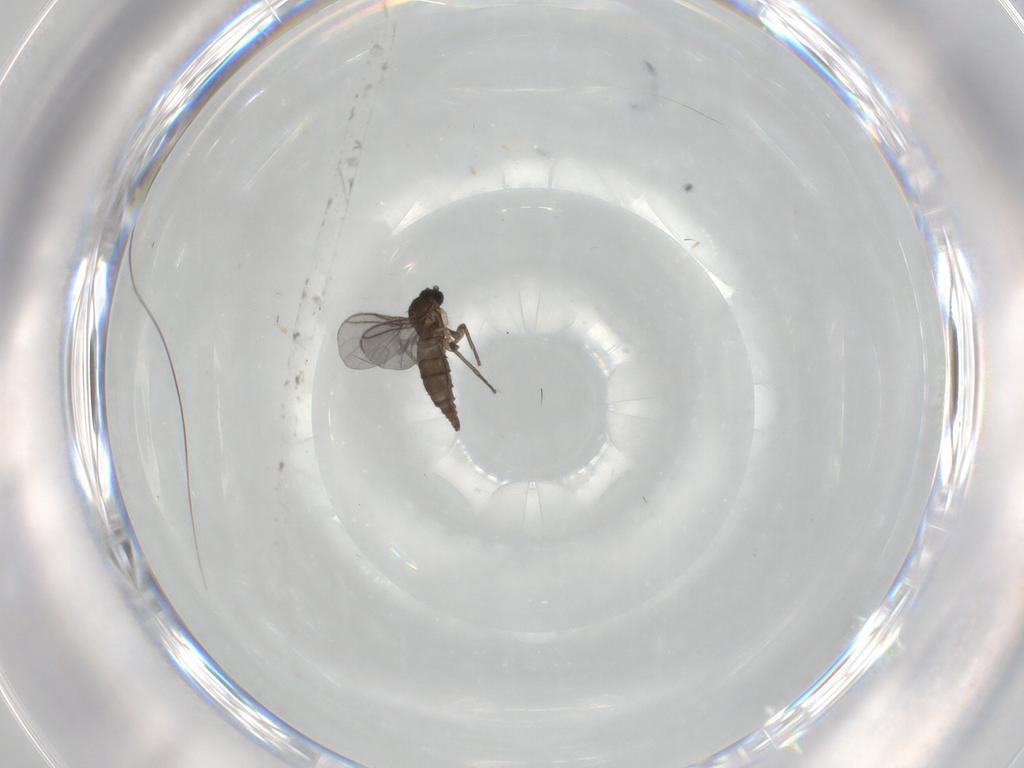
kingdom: Animalia
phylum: Arthropoda
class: Insecta
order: Diptera
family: Sciaridae
